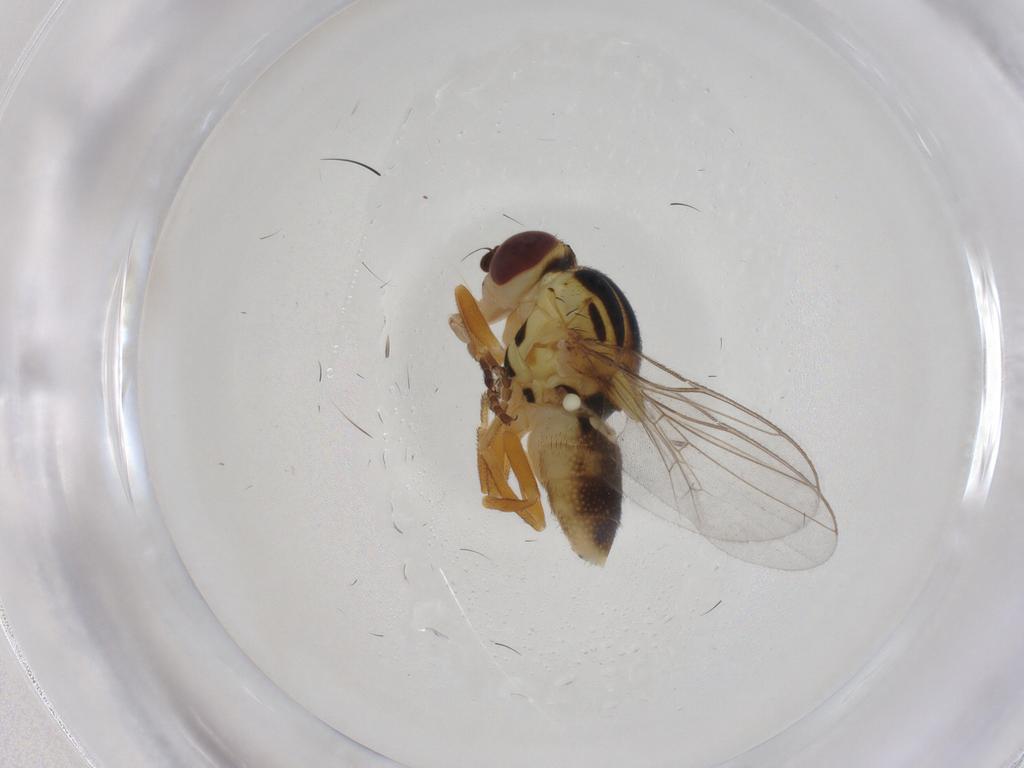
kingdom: Animalia
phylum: Arthropoda
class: Insecta
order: Diptera
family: Chloropidae
